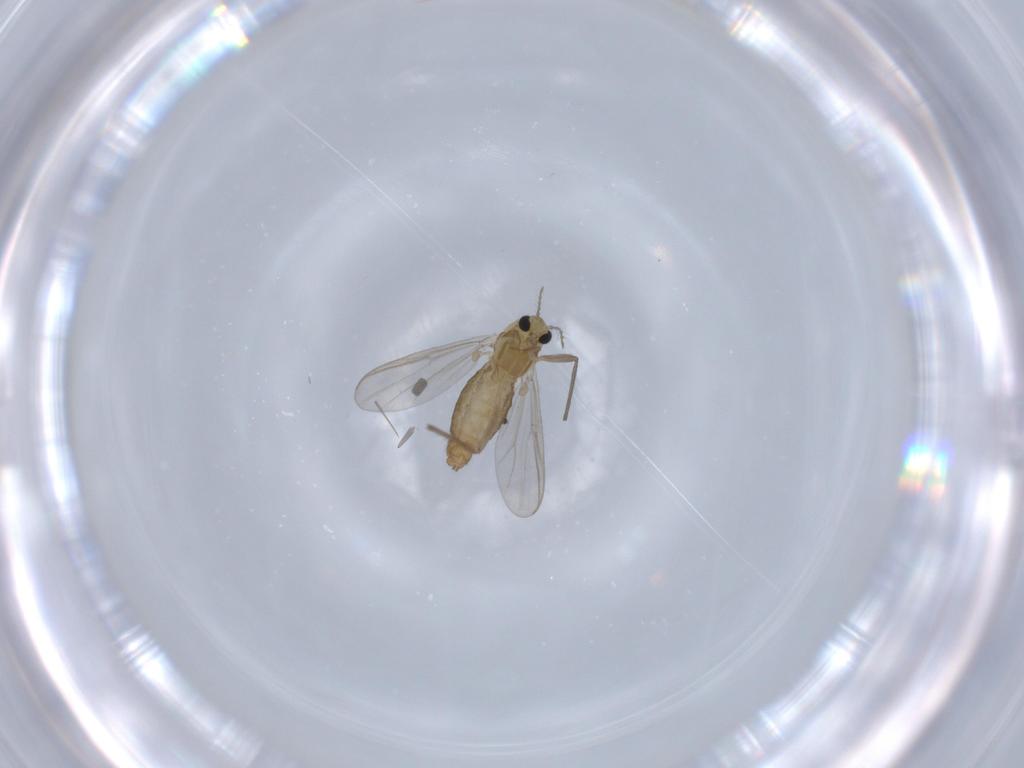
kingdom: Animalia
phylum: Arthropoda
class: Insecta
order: Diptera
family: Chironomidae
